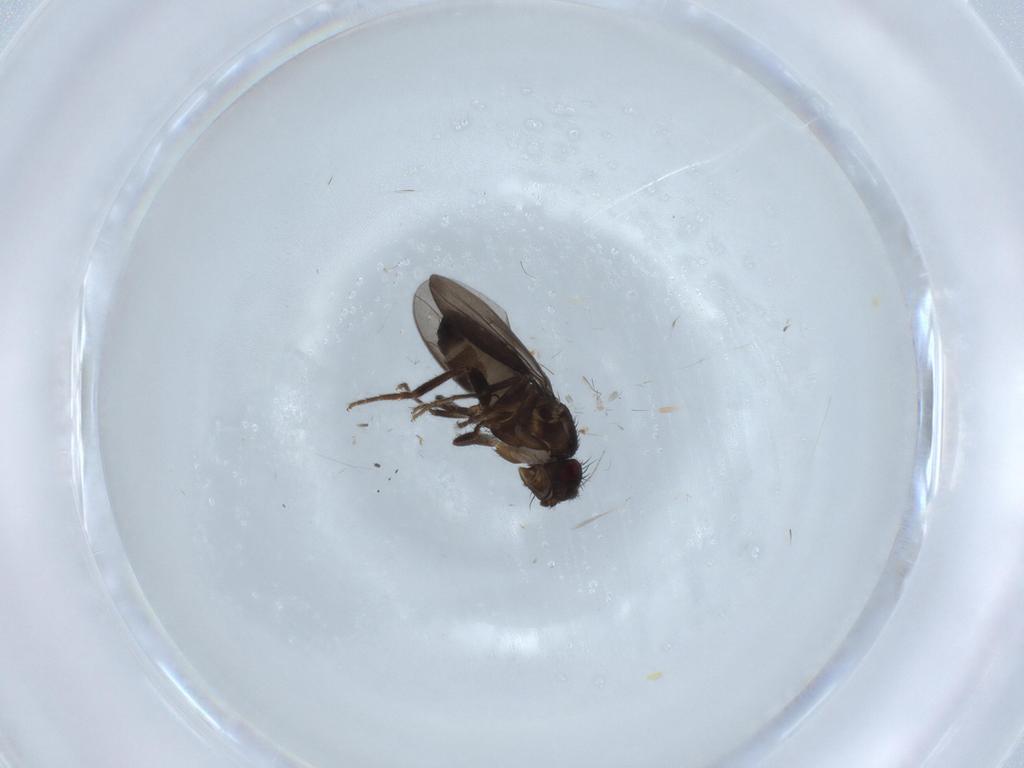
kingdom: Animalia
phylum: Arthropoda
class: Insecta
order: Diptera
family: Sphaeroceridae
